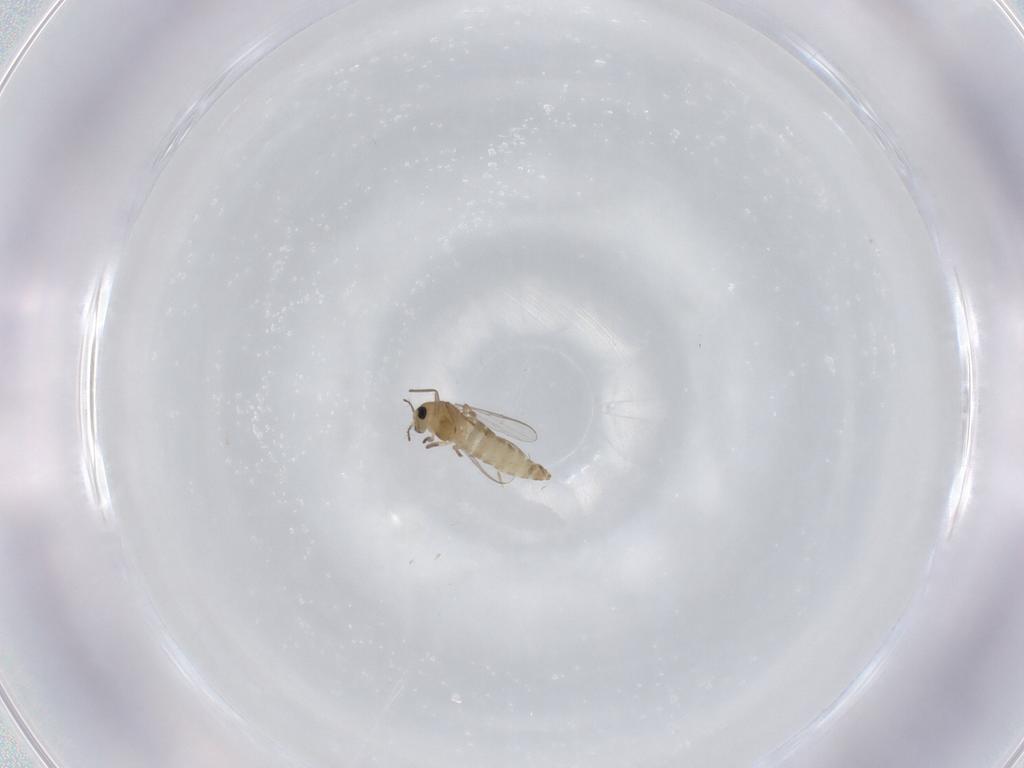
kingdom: Animalia
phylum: Arthropoda
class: Insecta
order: Diptera
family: Chironomidae
